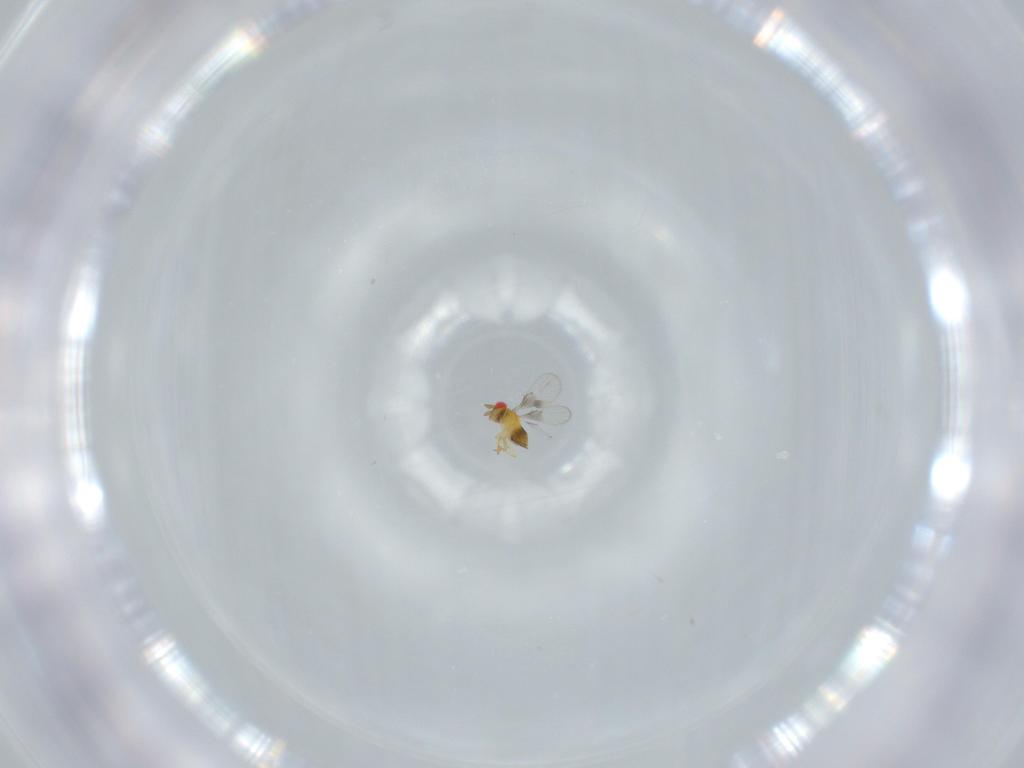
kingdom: Animalia
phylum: Arthropoda
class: Insecta
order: Hymenoptera
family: Trichogrammatidae
